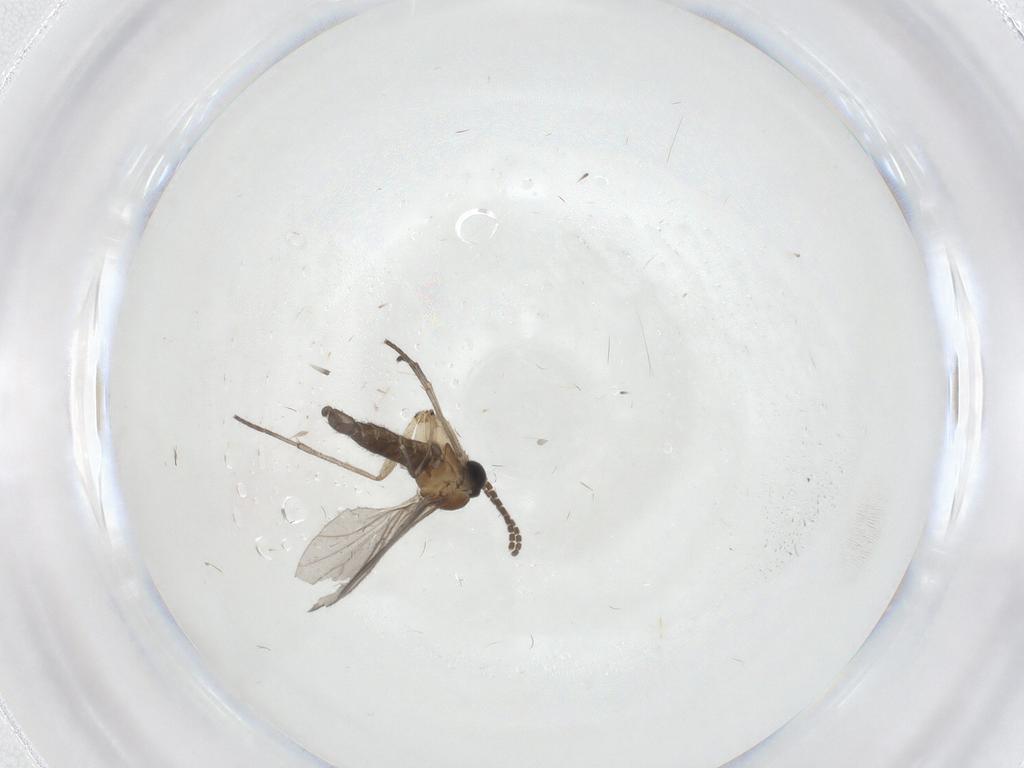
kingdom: Animalia
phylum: Arthropoda
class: Insecta
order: Diptera
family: Sciaridae
